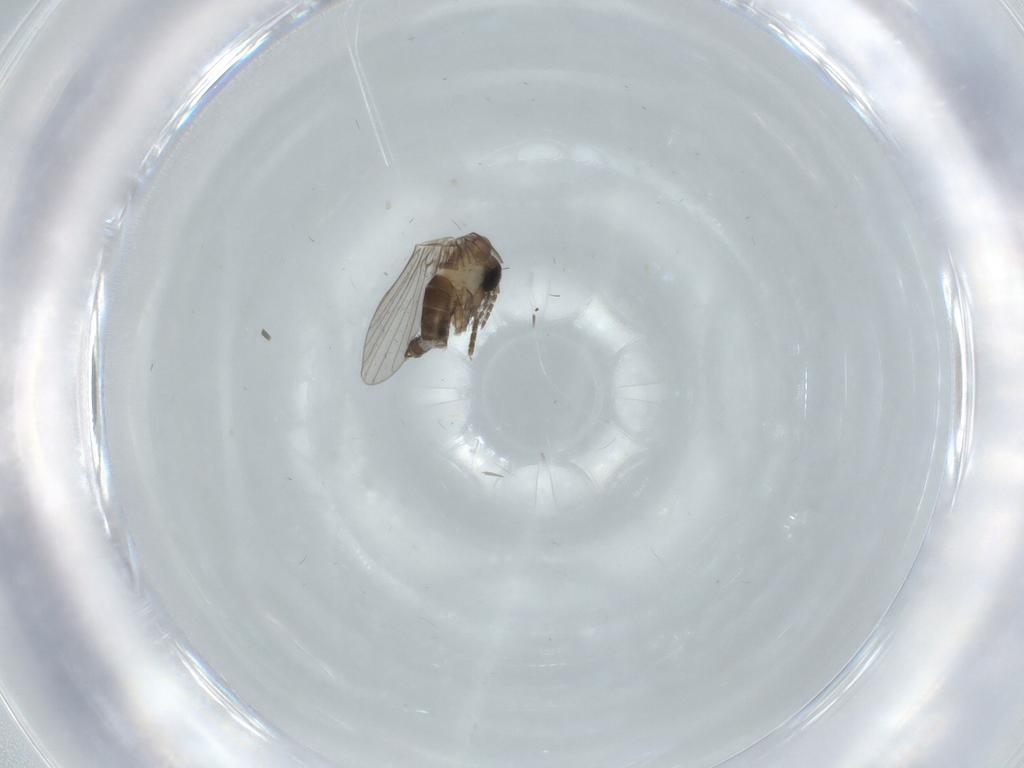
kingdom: Animalia
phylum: Arthropoda
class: Insecta
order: Diptera
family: Psychodidae
